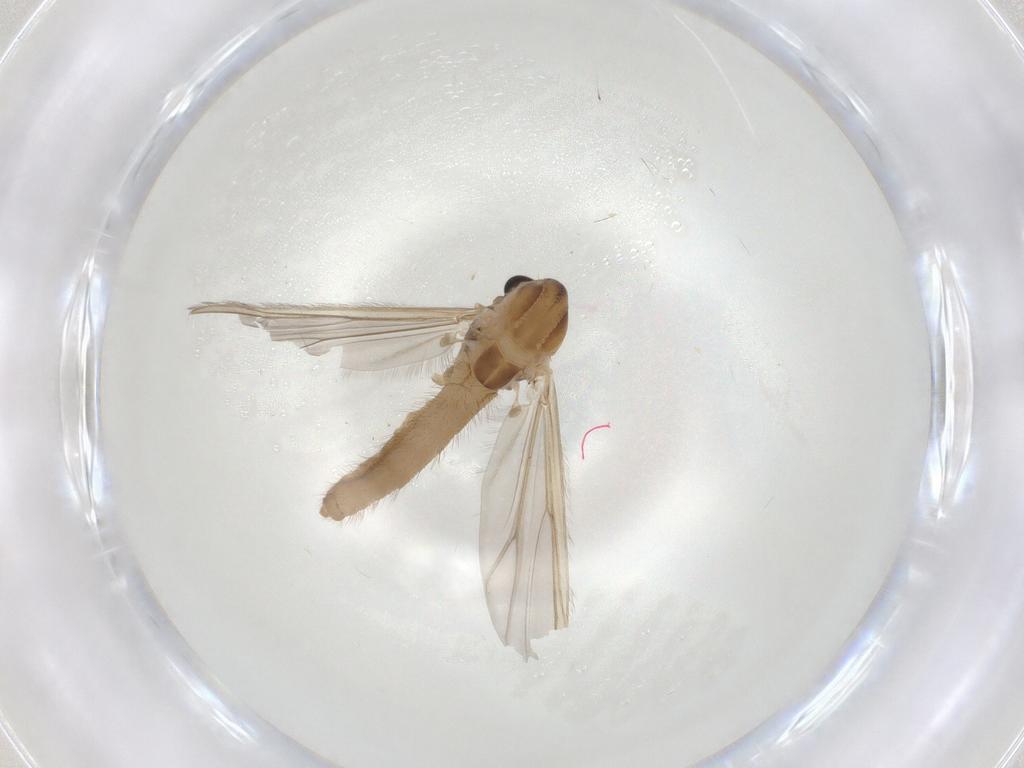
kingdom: Animalia
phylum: Arthropoda
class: Insecta
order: Diptera
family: Chironomidae
